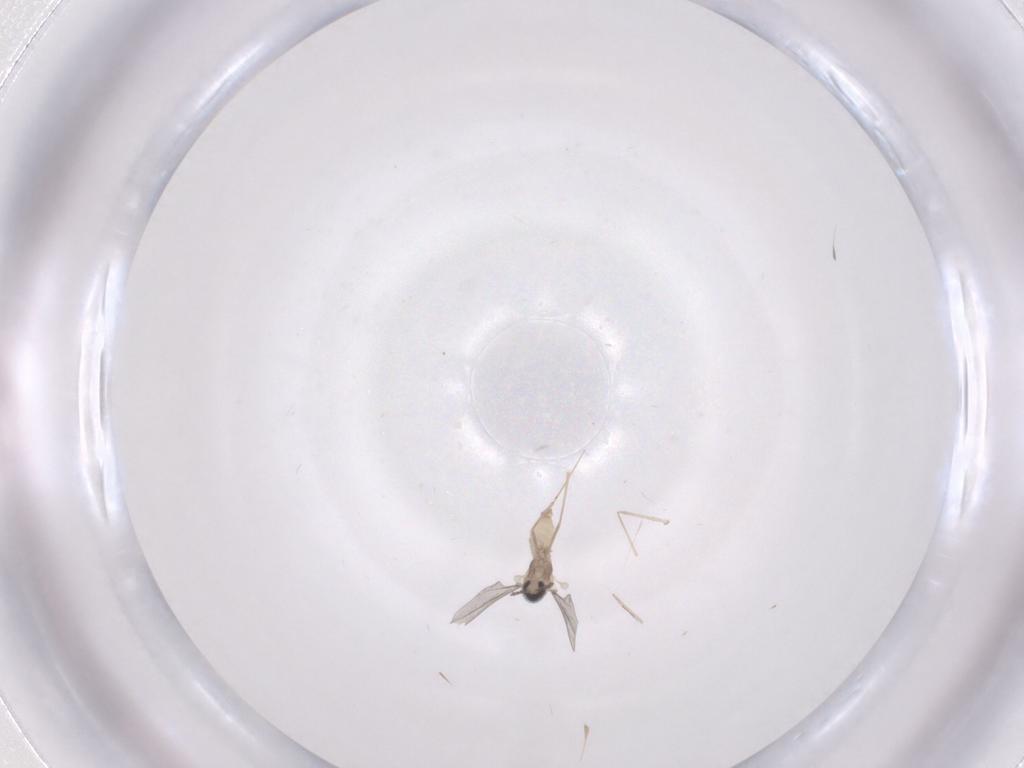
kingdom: Animalia
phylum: Arthropoda
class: Insecta
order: Diptera
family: Cecidomyiidae
